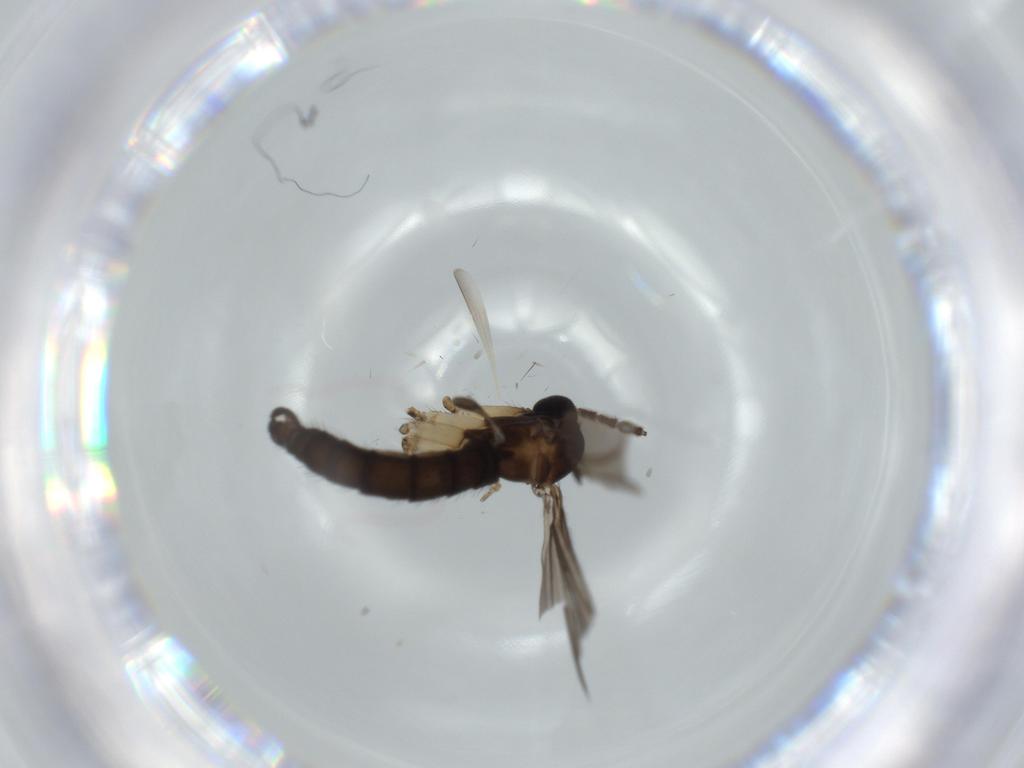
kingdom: Animalia
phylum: Arthropoda
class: Insecta
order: Diptera
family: Sciaridae
